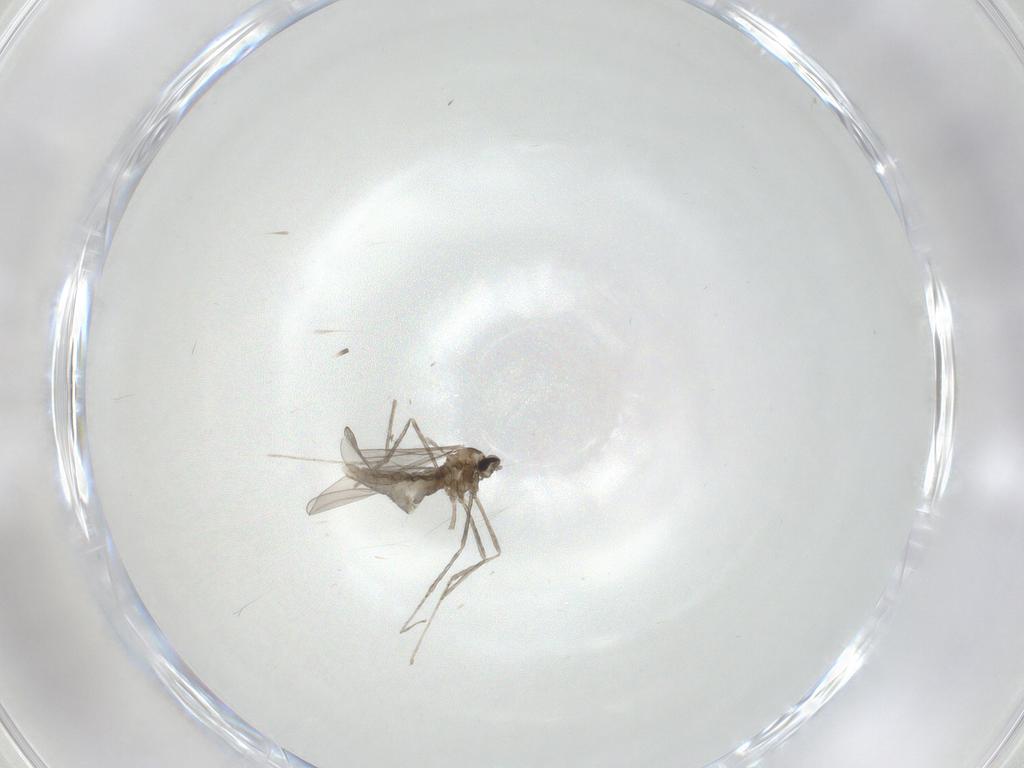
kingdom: Animalia
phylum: Arthropoda
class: Insecta
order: Diptera
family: Cecidomyiidae
